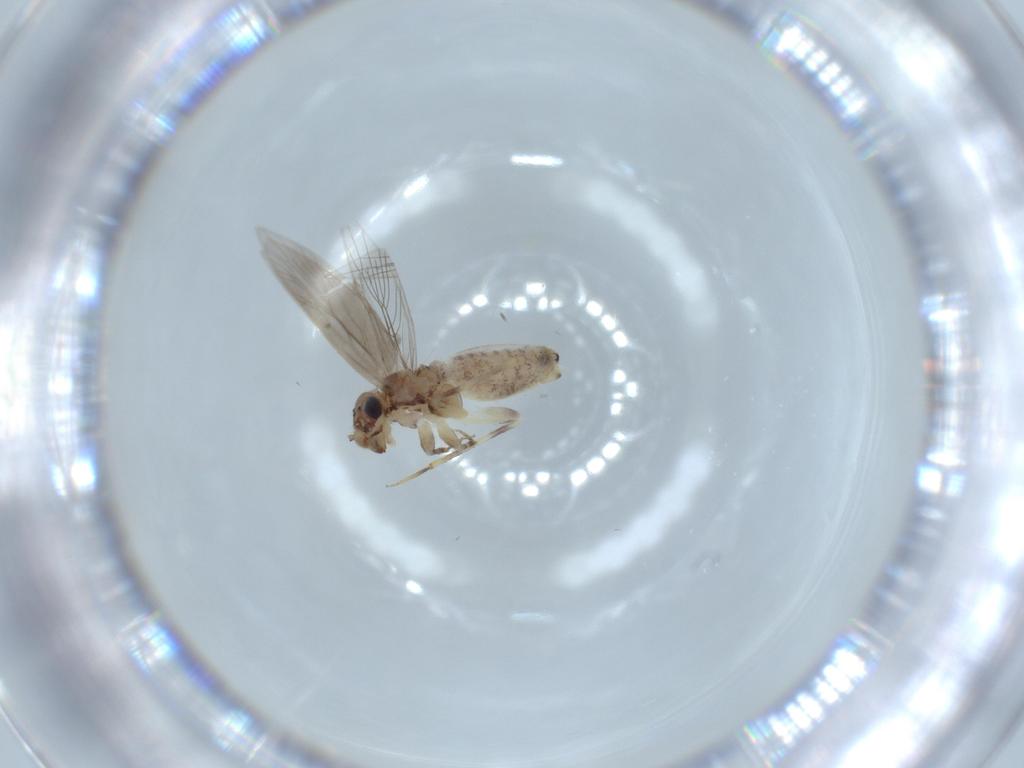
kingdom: Animalia
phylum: Arthropoda
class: Insecta
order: Psocodea
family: Lepidopsocidae
